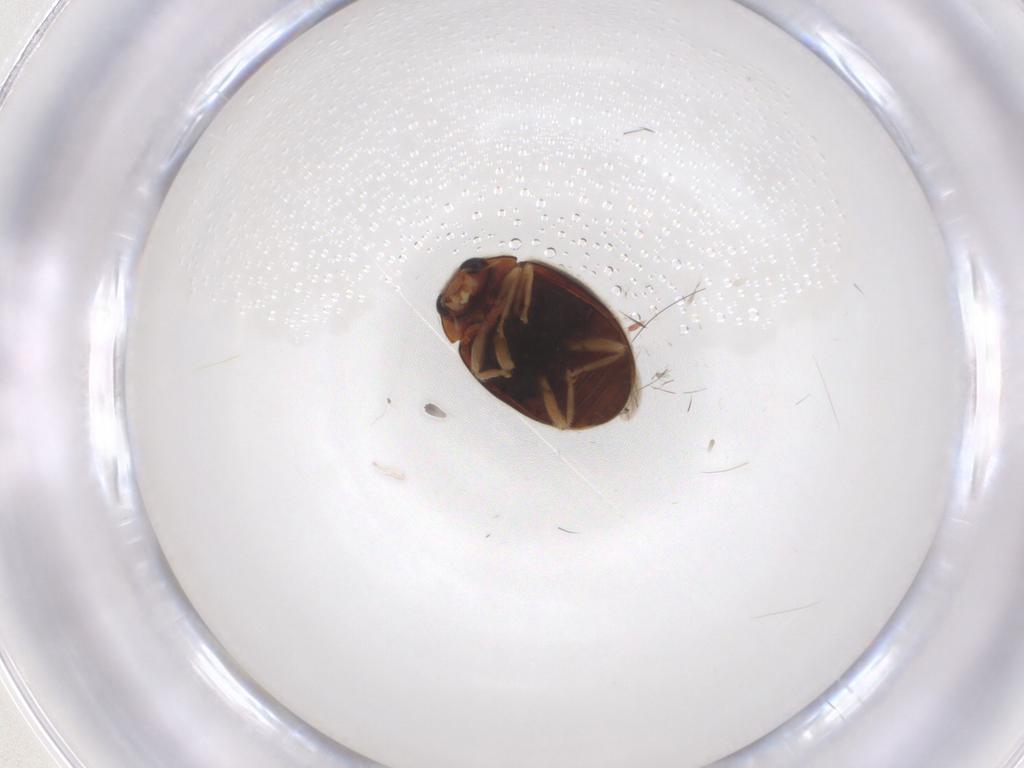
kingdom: Animalia
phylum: Arthropoda
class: Insecta
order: Coleoptera
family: Coccinellidae
